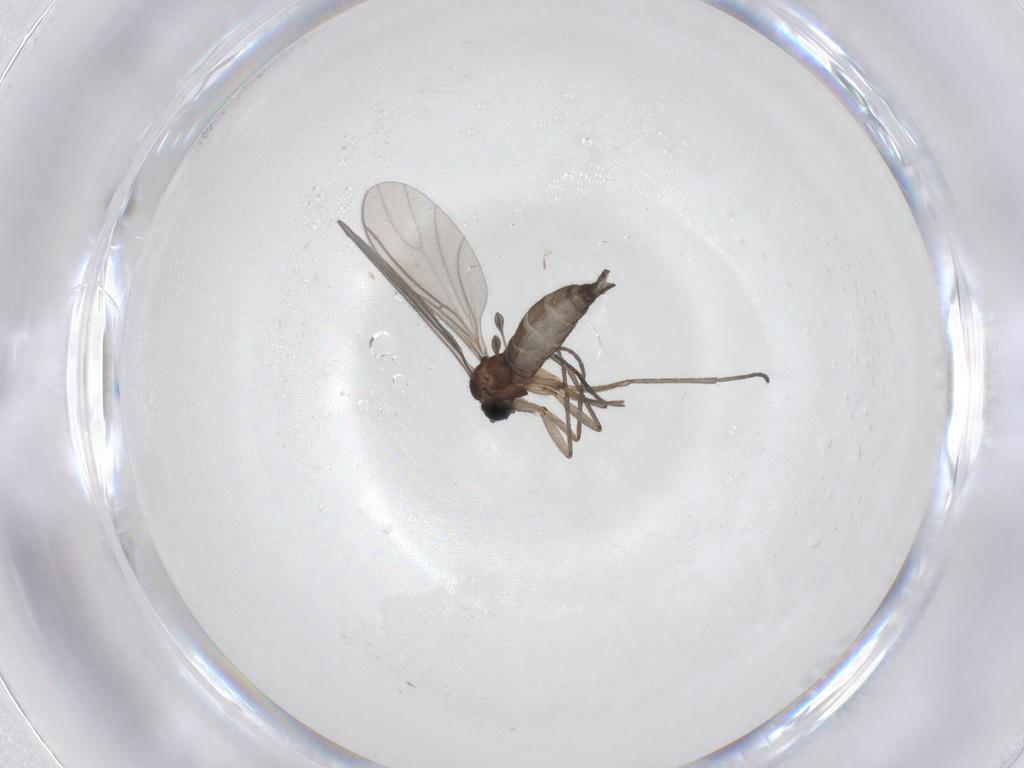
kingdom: Animalia
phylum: Arthropoda
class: Insecta
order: Diptera
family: Sciaridae
